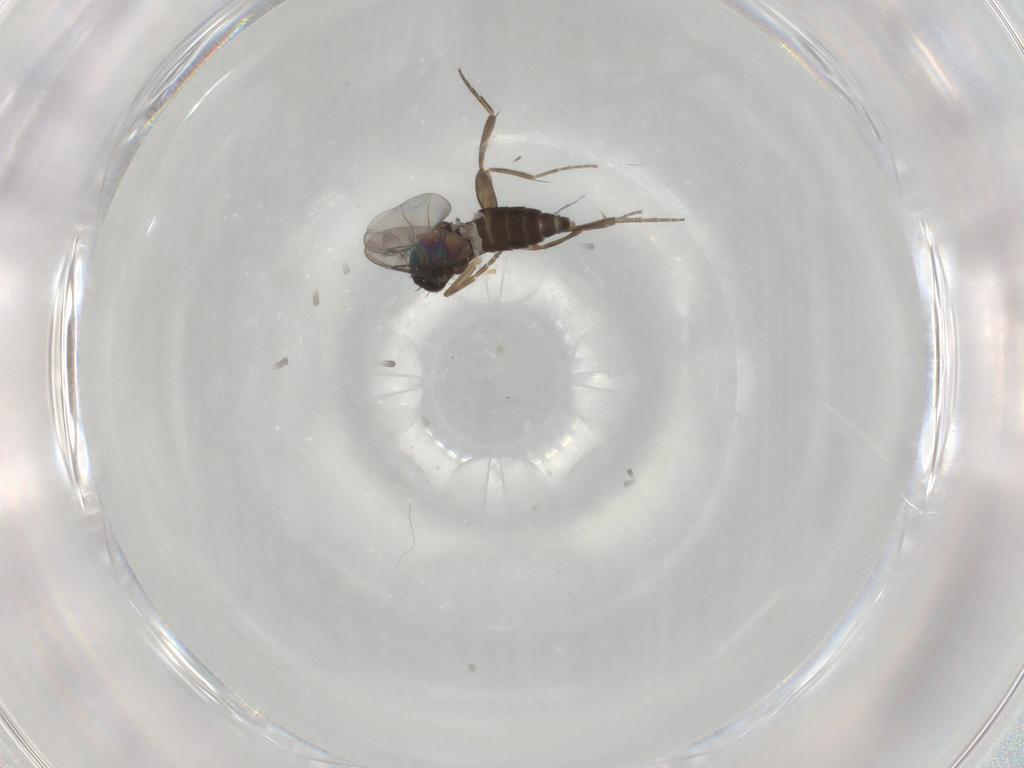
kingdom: Animalia
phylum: Arthropoda
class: Insecta
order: Diptera
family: Phoridae
